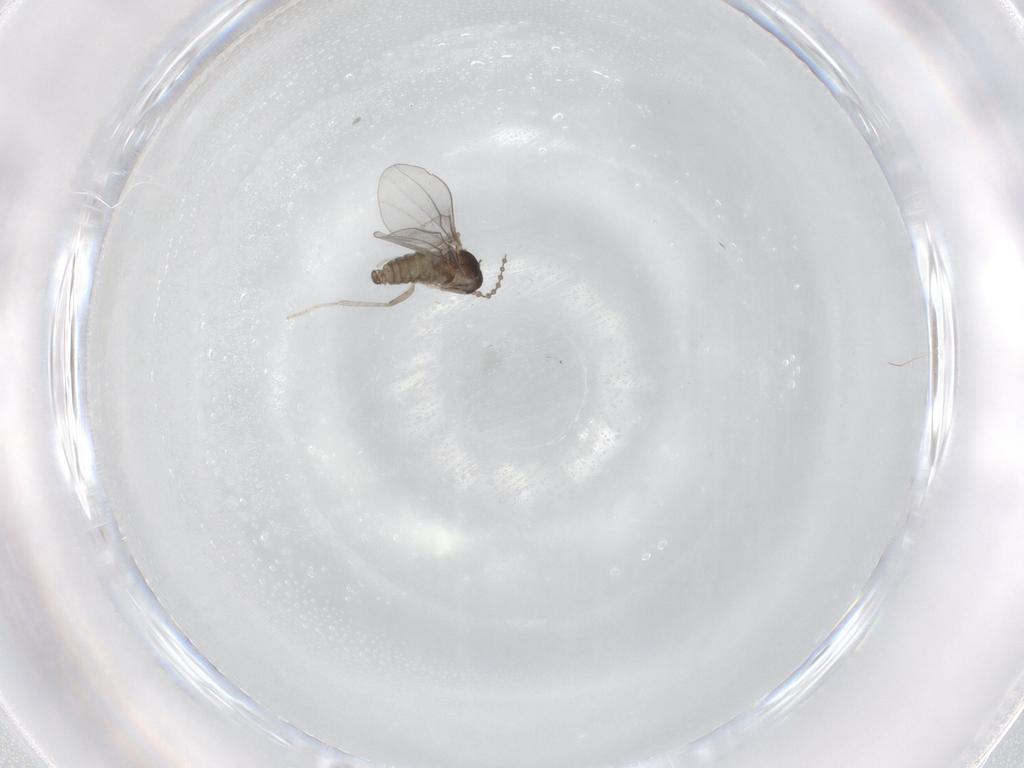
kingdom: Animalia
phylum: Arthropoda
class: Insecta
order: Diptera
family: Cecidomyiidae
